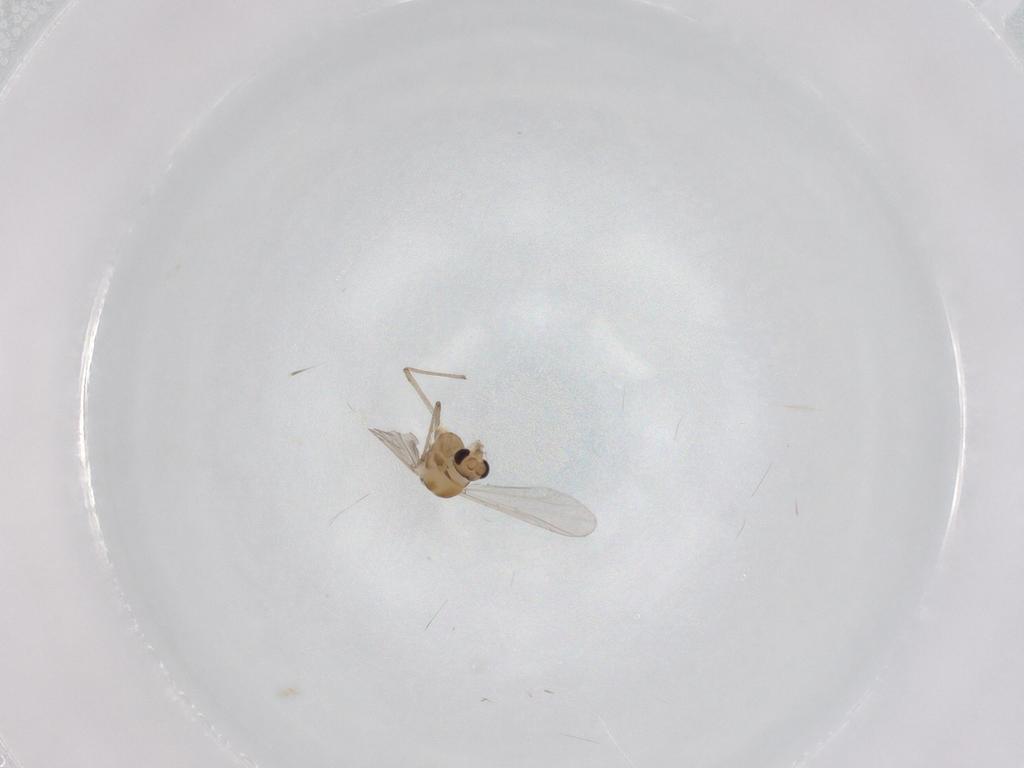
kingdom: Animalia
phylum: Arthropoda
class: Insecta
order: Diptera
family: Chironomidae
